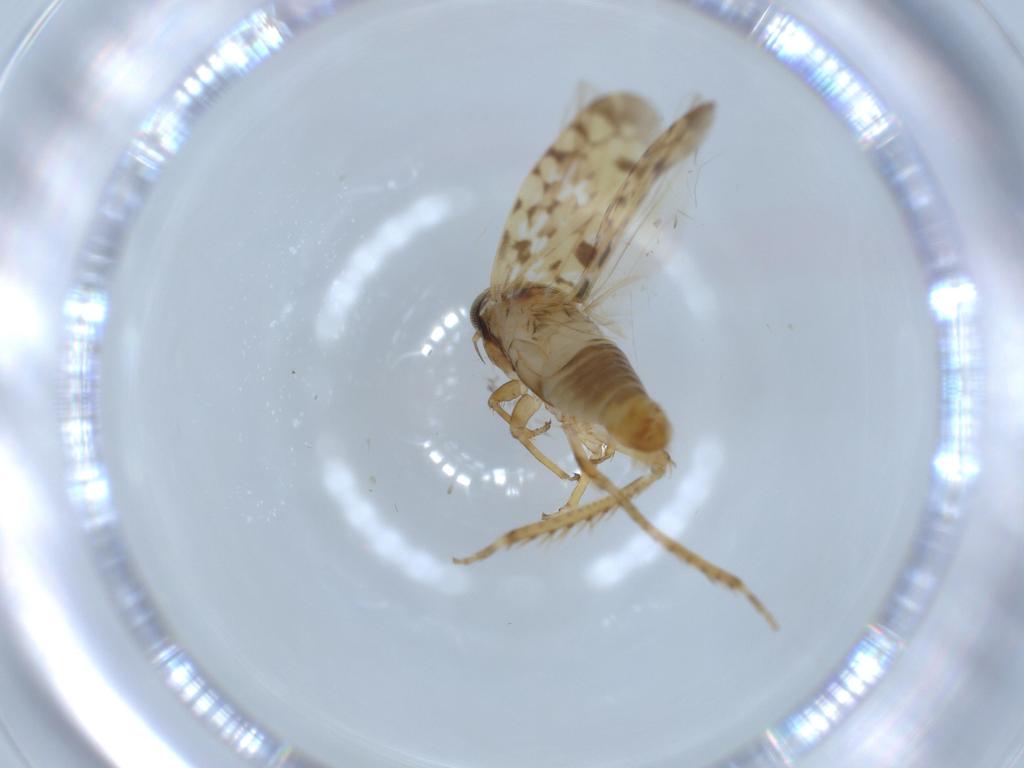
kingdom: Animalia
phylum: Arthropoda
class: Insecta
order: Hemiptera
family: Cicadellidae
